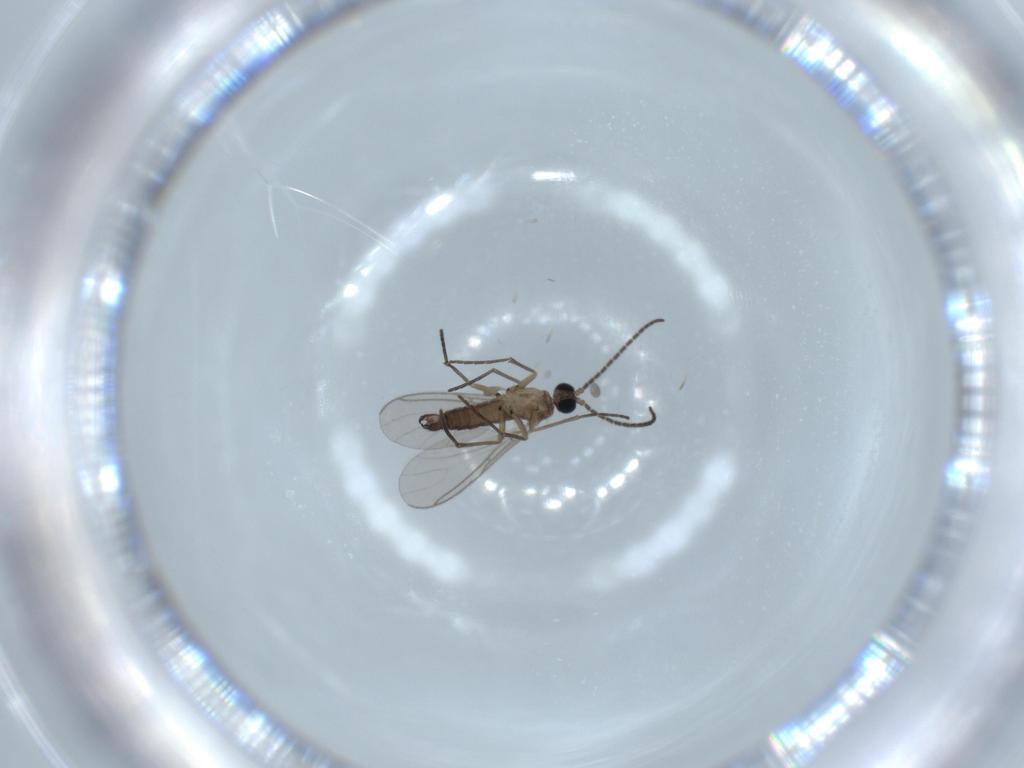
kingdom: Animalia
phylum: Arthropoda
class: Insecta
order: Diptera
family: Sciaridae
